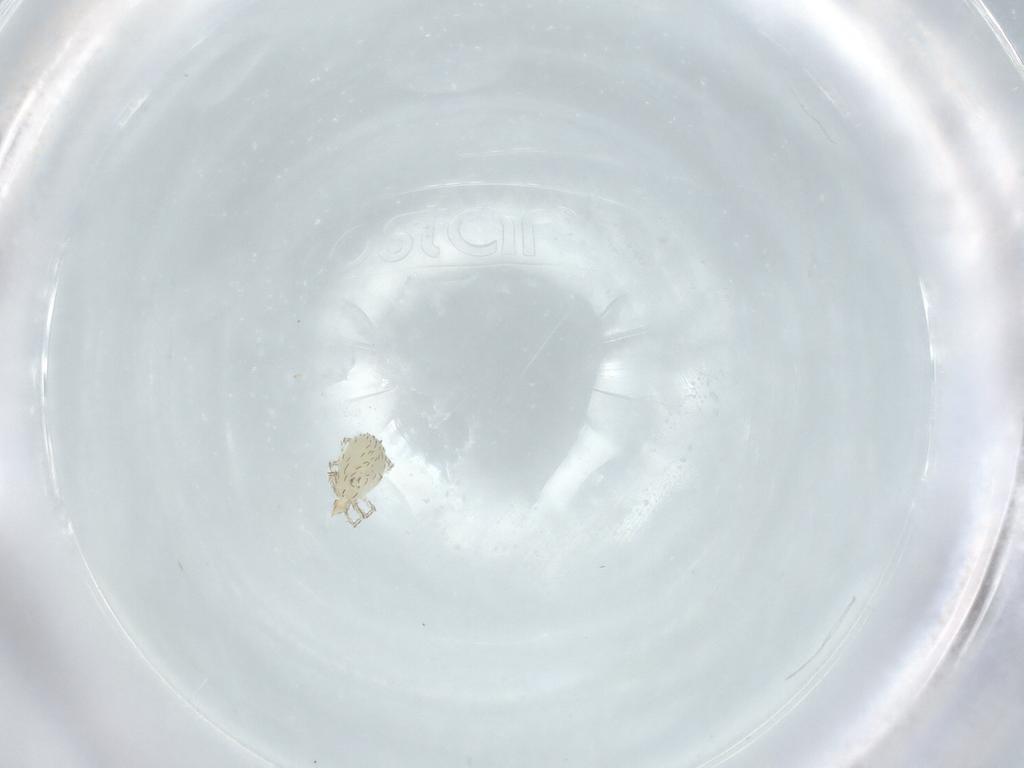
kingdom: Animalia
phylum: Arthropoda
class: Arachnida
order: Trombidiformes
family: Erythraeidae
